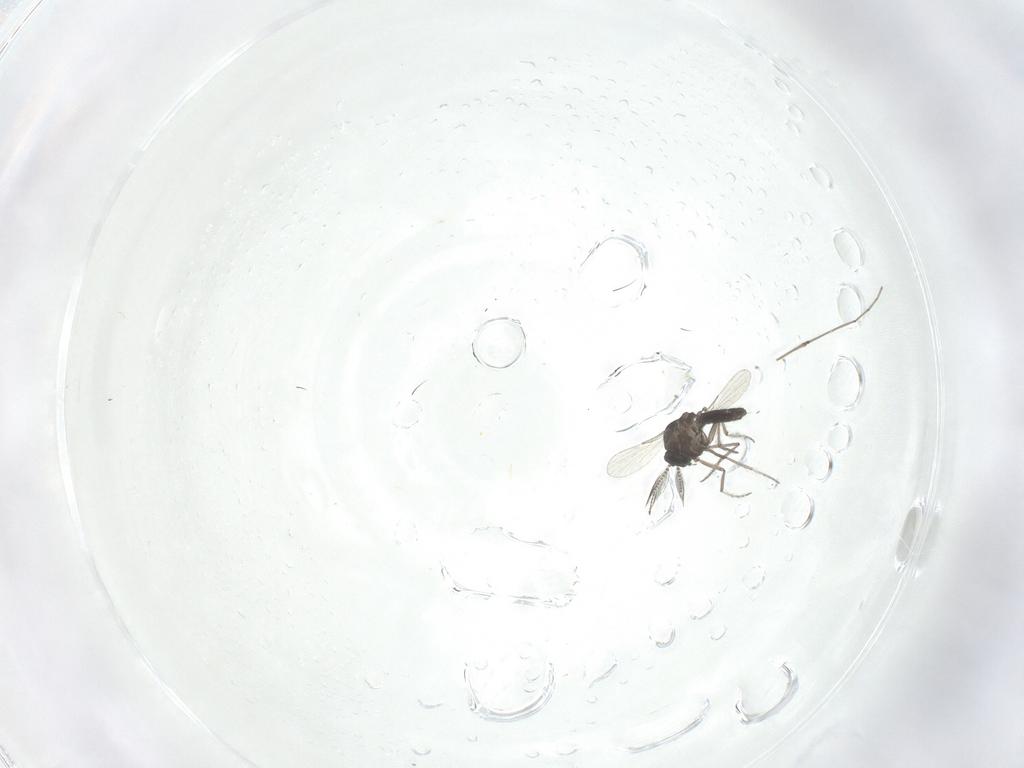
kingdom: Animalia
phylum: Arthropoda
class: Insecta
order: Diptera
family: Ceratopogonidae
